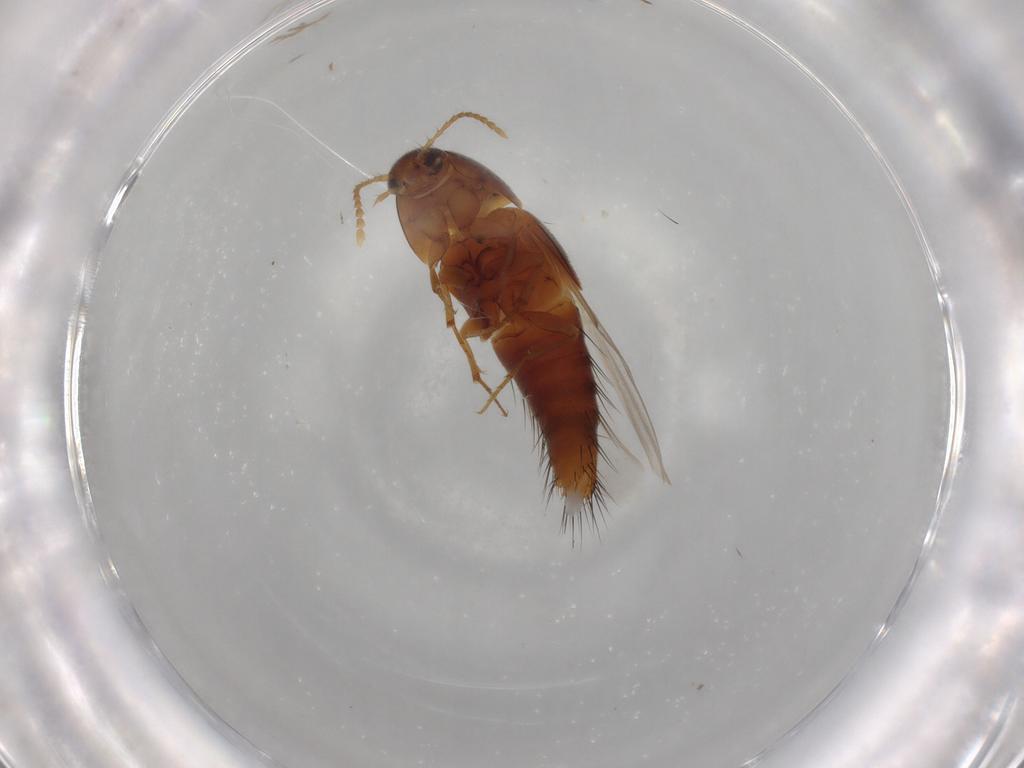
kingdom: Animalia
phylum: Arthropoda
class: Insecta
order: Coleoptera
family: Staphylinidae
